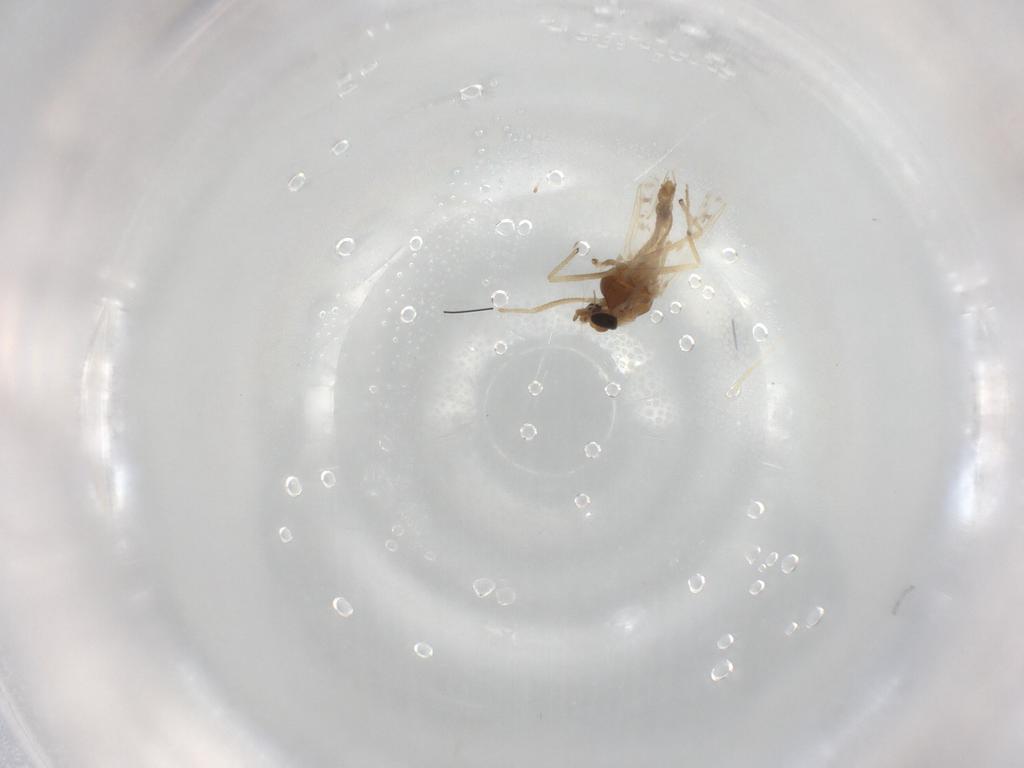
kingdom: Animalia
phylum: Arthropoda
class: Insecta
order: Diptera
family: Chironomidae
